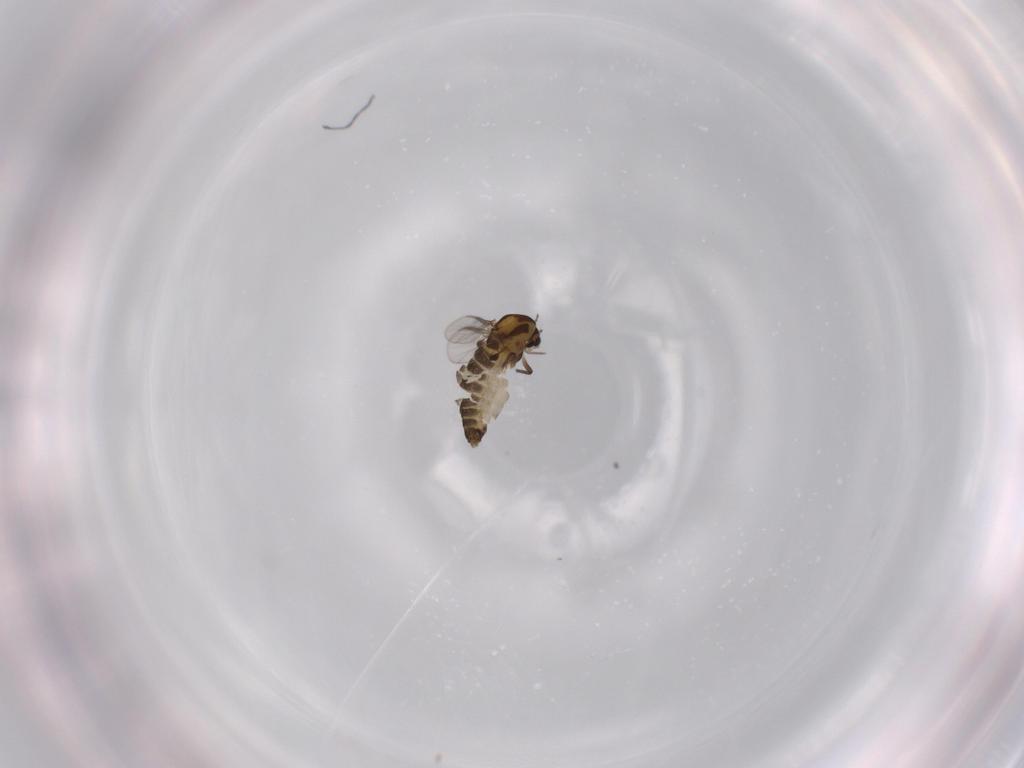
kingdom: Animalia
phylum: Arthropoda
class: Insecta
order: Diptera
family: Chironomidae
